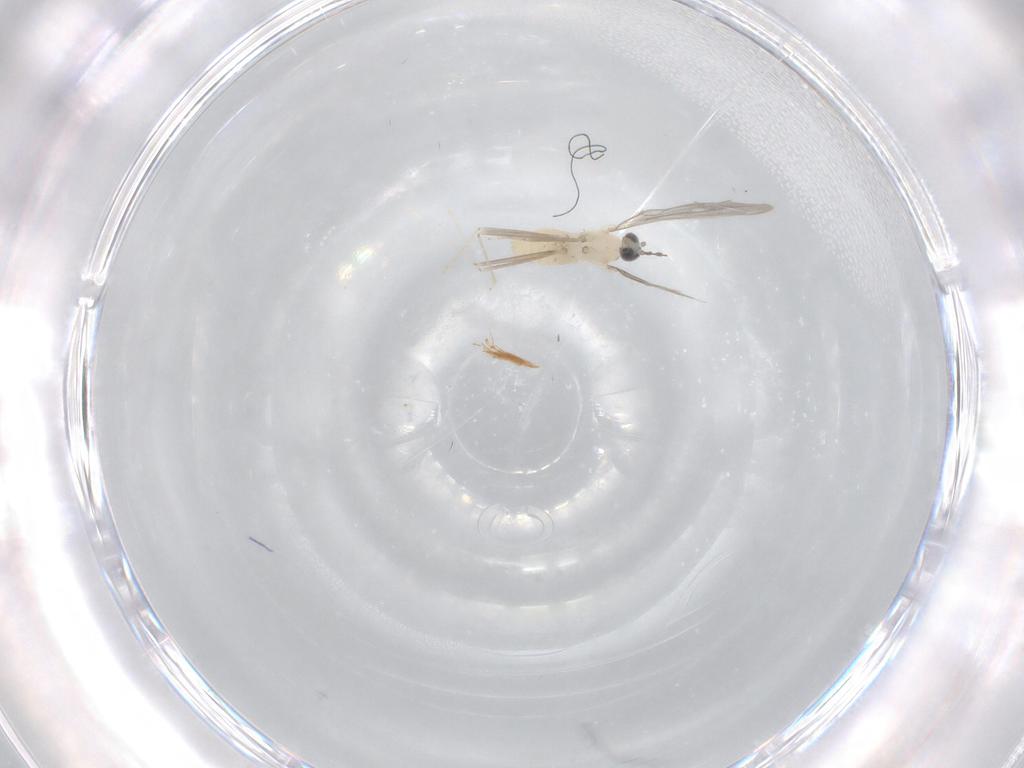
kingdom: Animalia
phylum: Arthropoda
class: Insecta
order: Diptera
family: Cecidomyiidae
